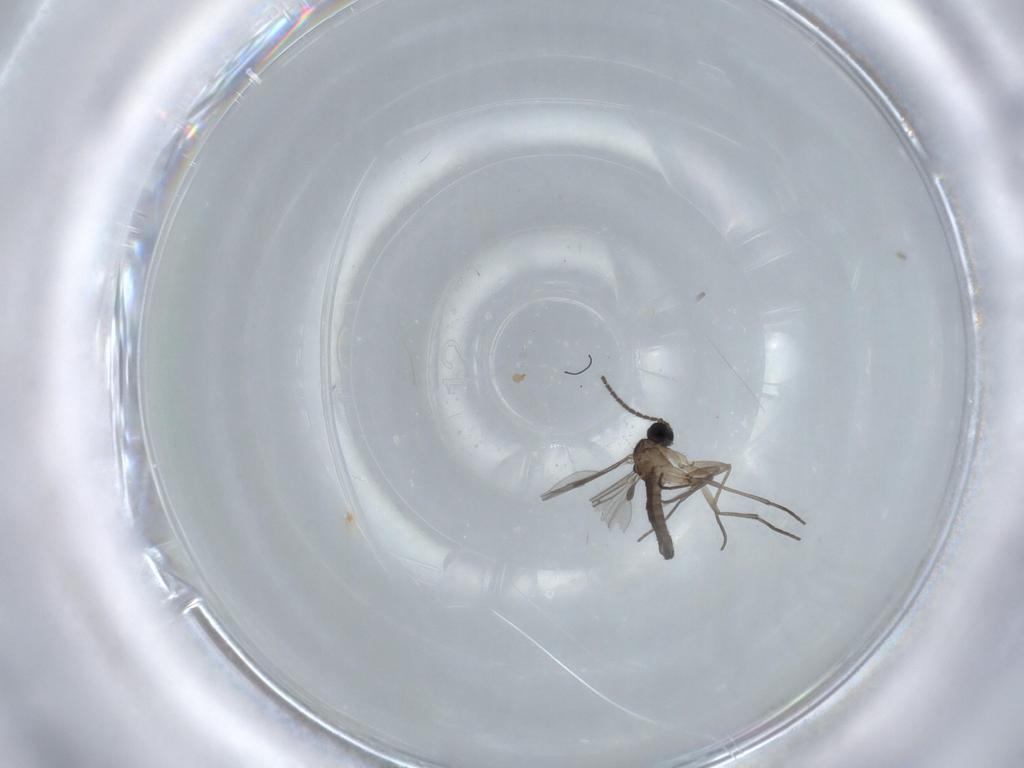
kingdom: Animalia
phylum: Arthropoda
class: Insecta
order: Diptera
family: Sciaridae
